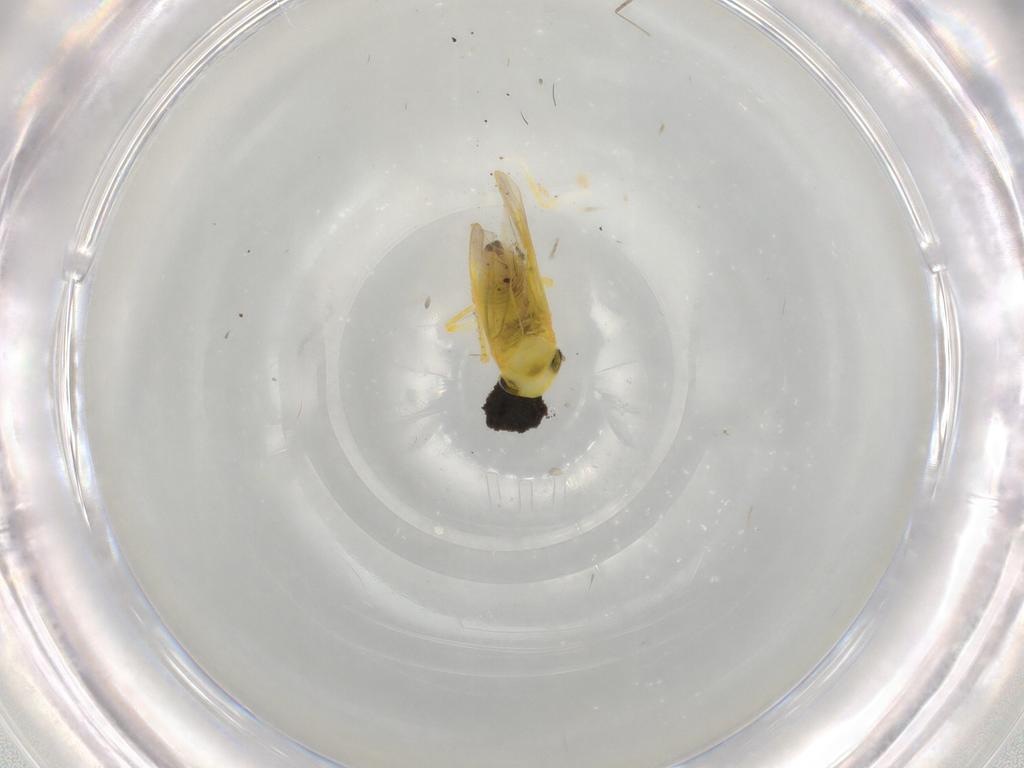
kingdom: Animalia
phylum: Arthropoda
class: Insecta
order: Hemiptera
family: Cicadellidae
